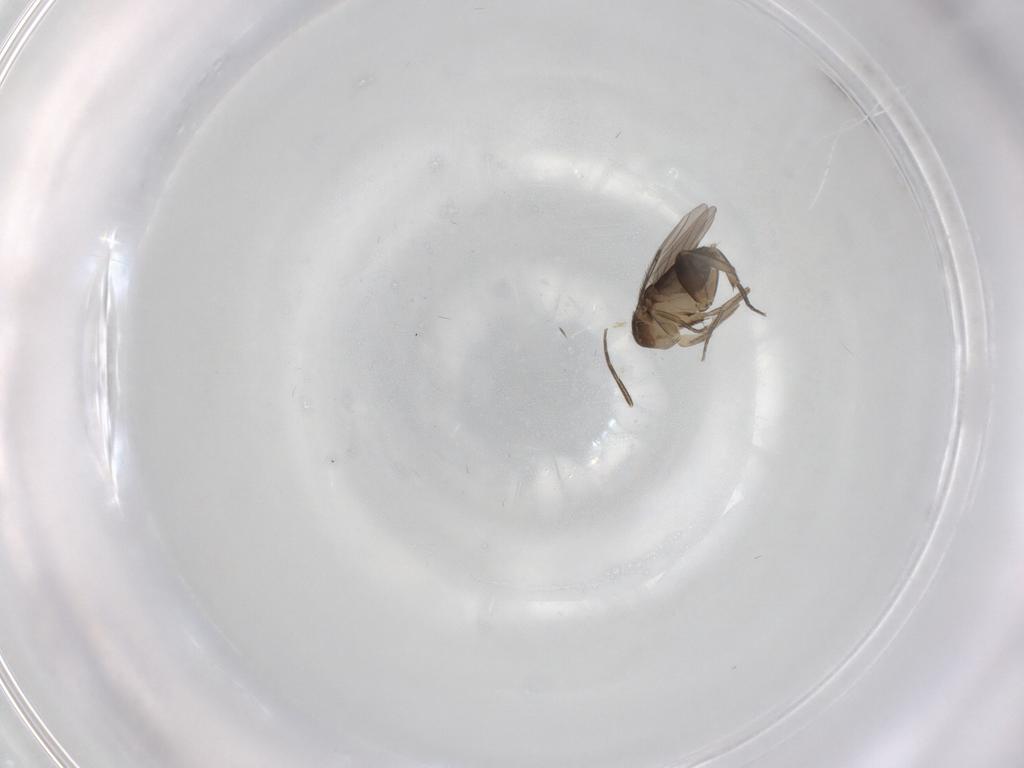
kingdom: Animalia
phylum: Arthropoda
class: Insecta
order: Diptera
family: Phoridae
